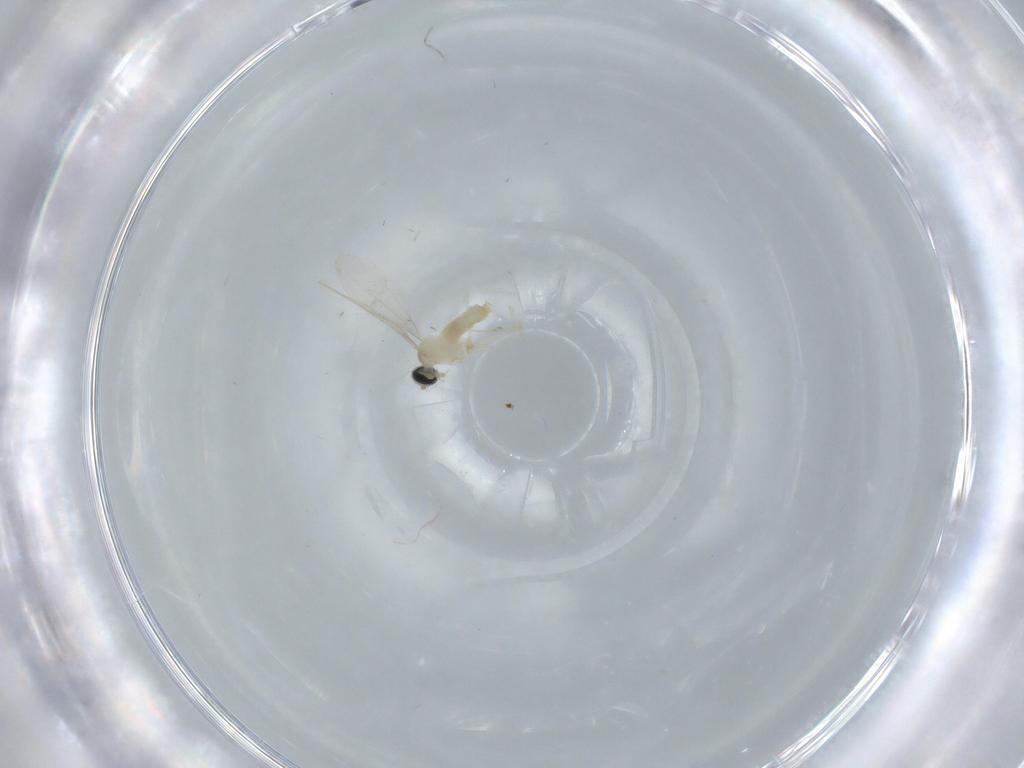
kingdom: Animalia
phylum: Arthropoda
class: Insecta
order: Diptera
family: Cecidomyiidae
